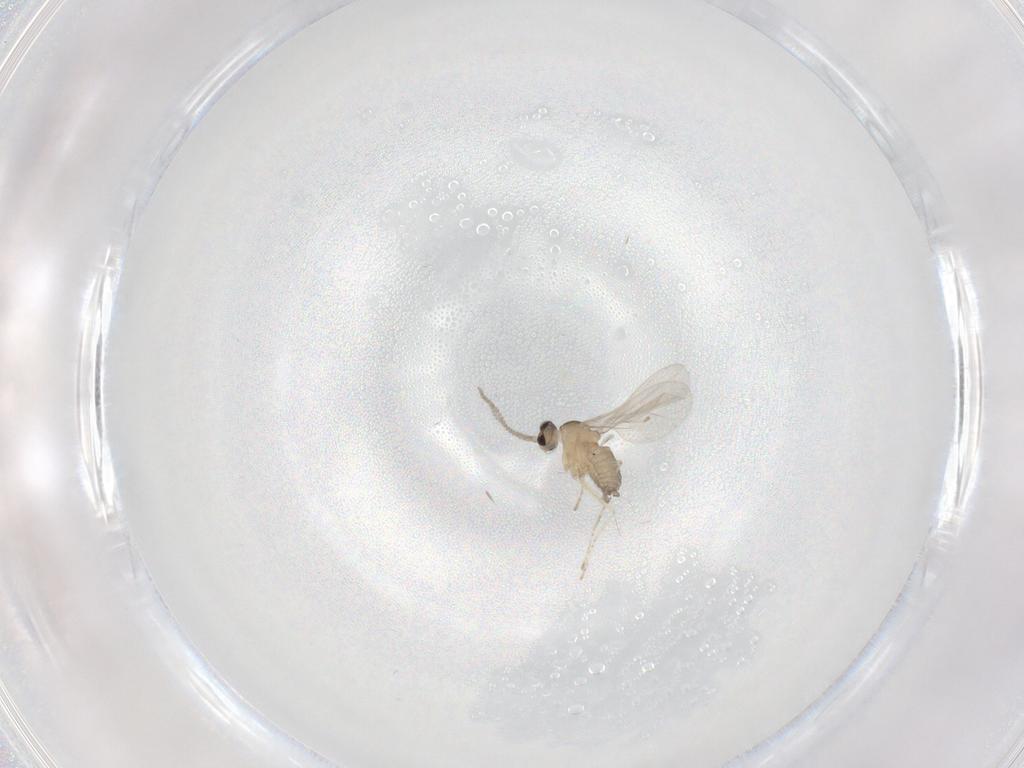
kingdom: Animalia
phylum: Arthropoda
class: Insecta
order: Diptera
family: Cecidomyiidae
